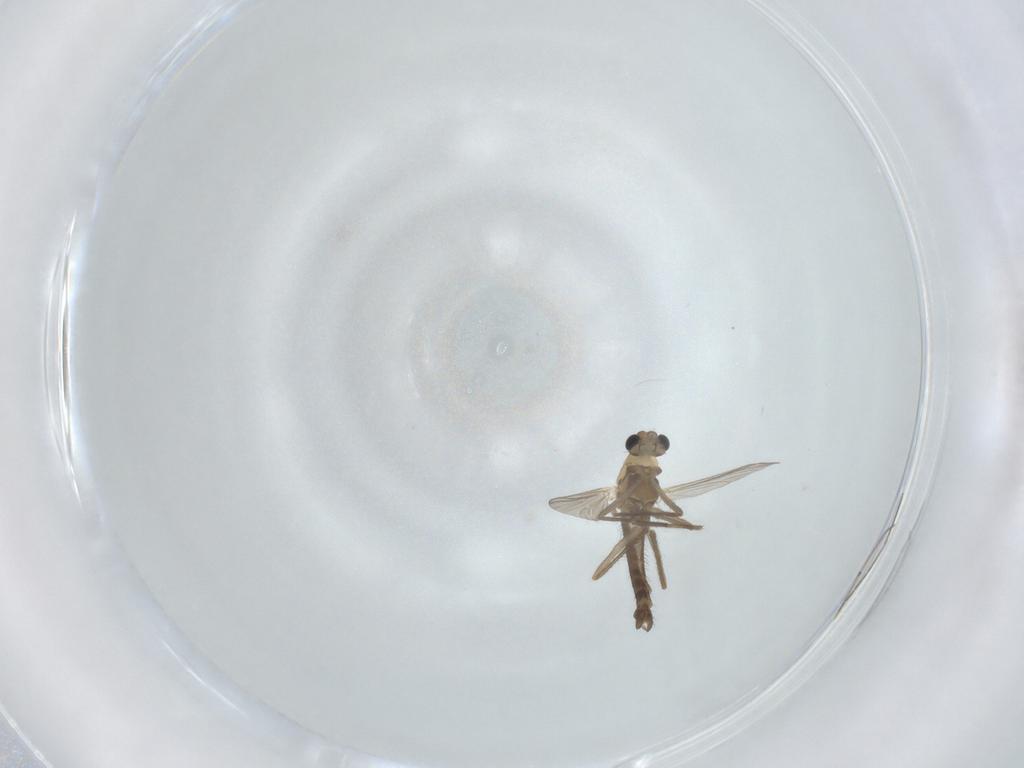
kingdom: Animalia
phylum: Arthropoda
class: Insecta
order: Diptera
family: Chironomidae
